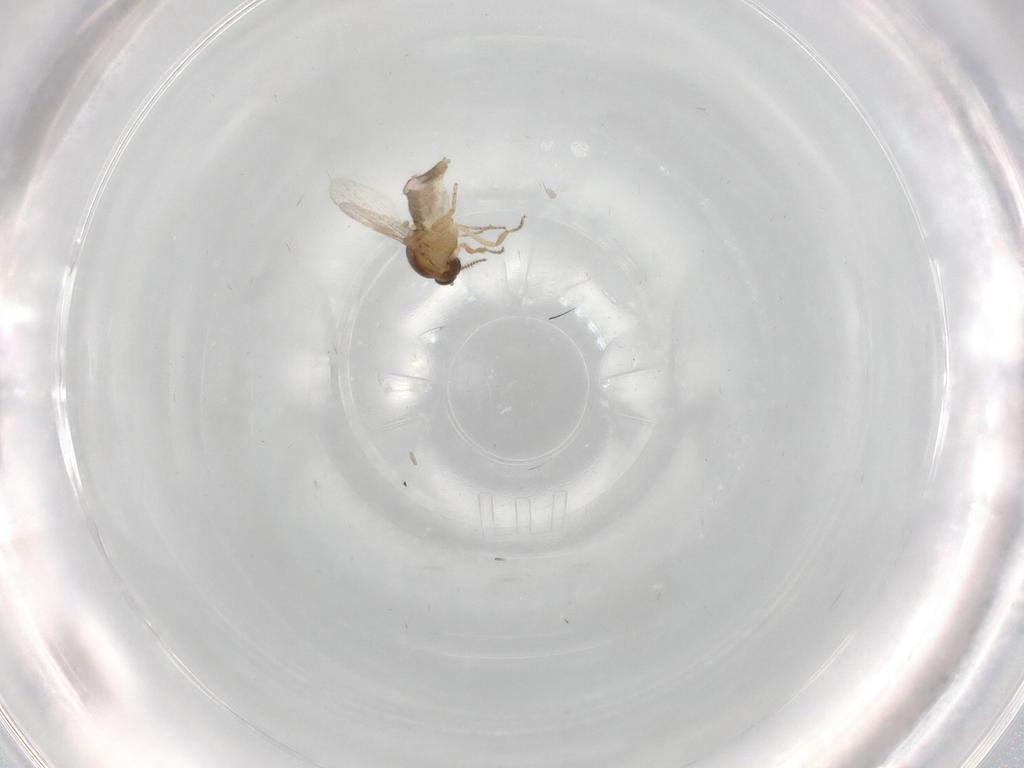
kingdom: Animalia
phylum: Arthropoda
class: Insecta
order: Diptera
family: Ceratopogonidae
